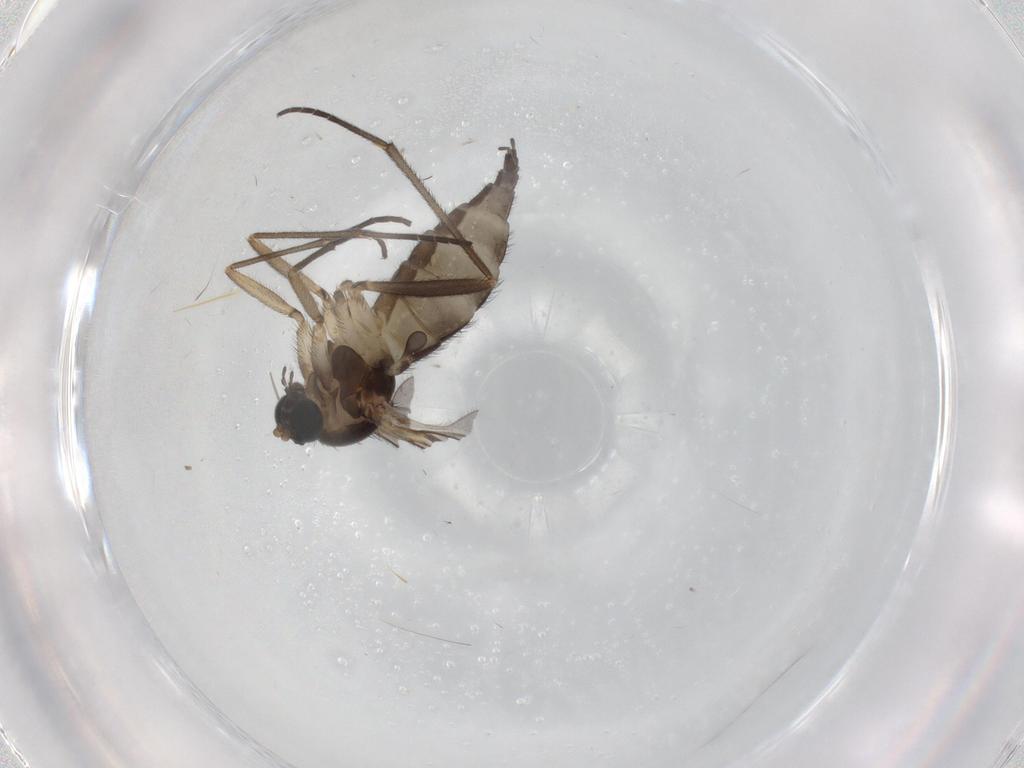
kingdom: Animalia
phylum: Arthropoda
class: Insecta
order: Diptera
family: Sciaridae
